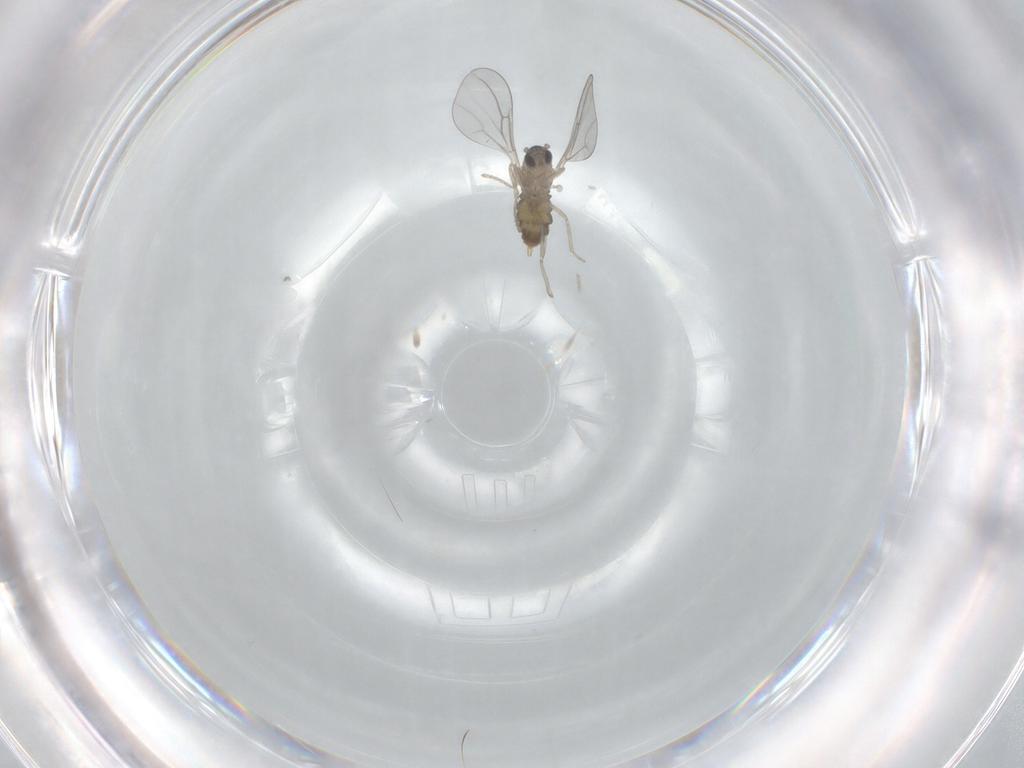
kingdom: Animalia
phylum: Arthropoda
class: Insecta
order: Diptera
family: Cecidomyiidae
